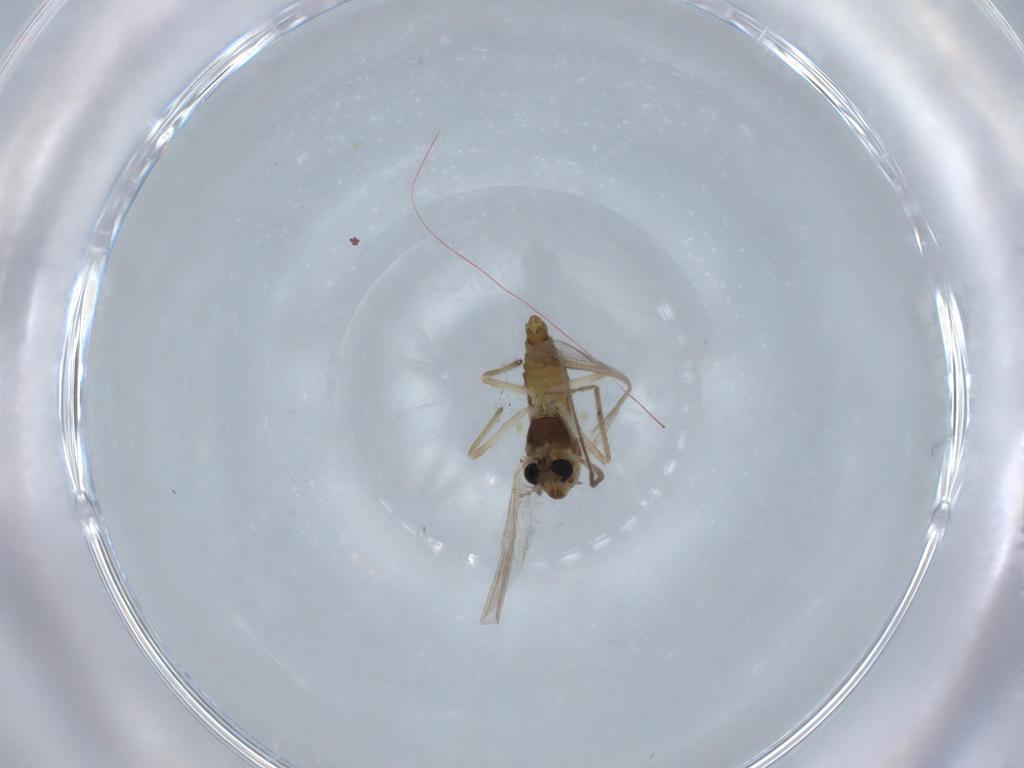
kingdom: Animalia
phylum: Arthropoda
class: Insecta
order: Diptera
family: Chironomidae
